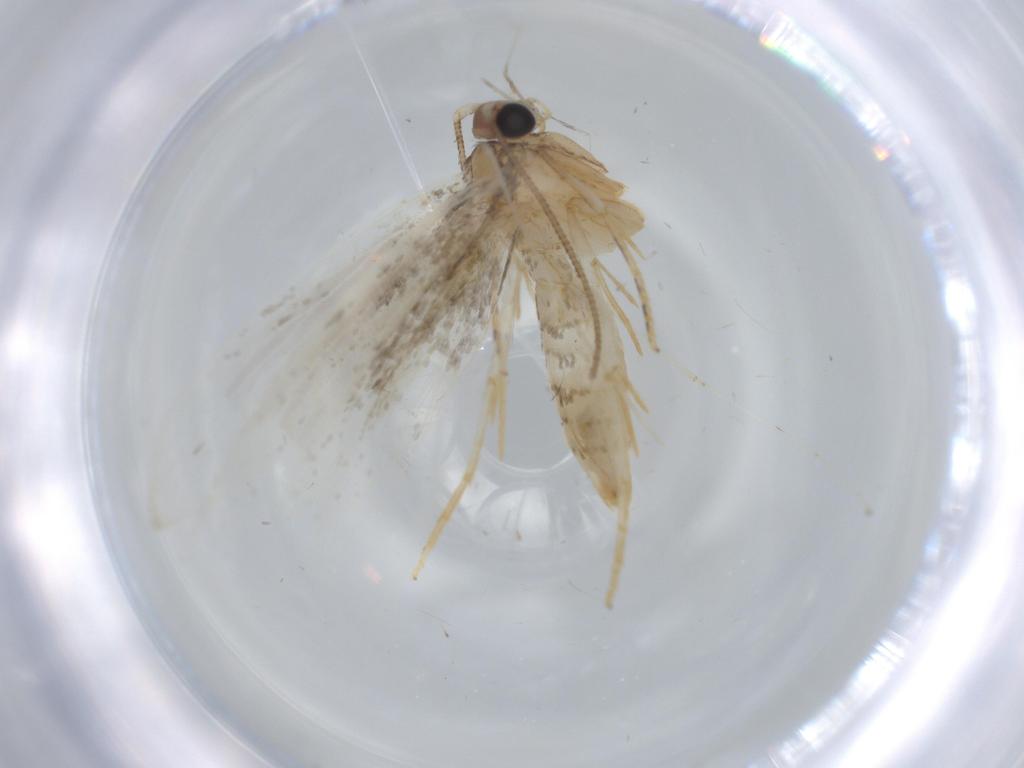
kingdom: Animalia
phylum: Arthropoda
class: Insecta
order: Lepidoptera
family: Tineidae
